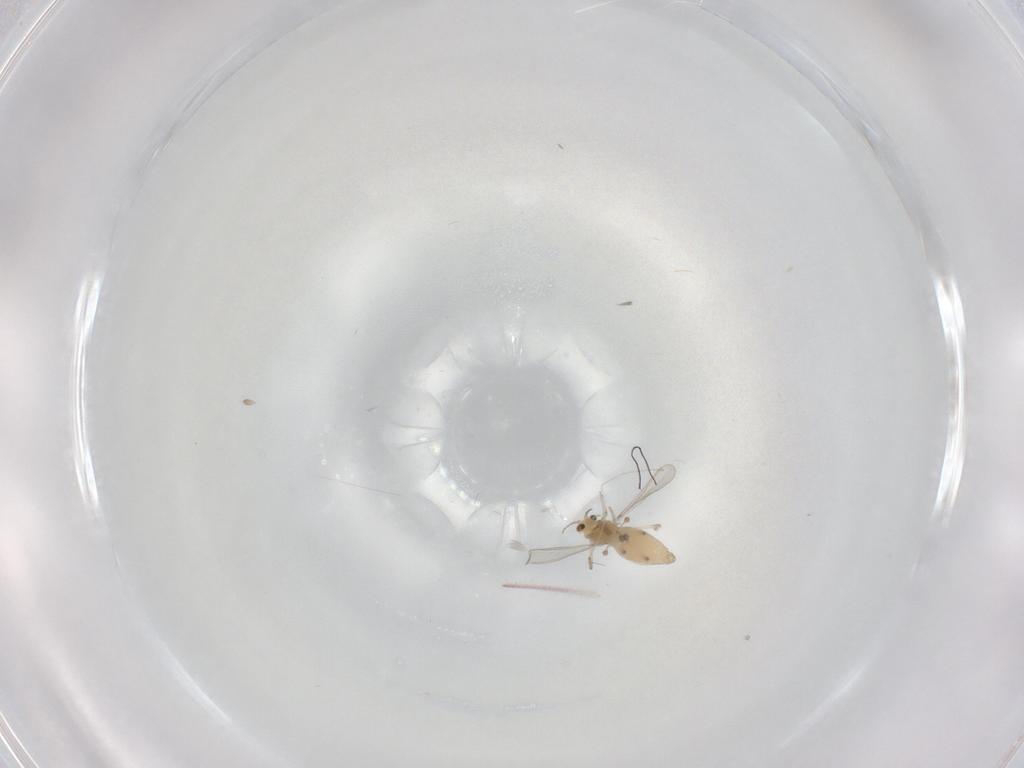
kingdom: Animalia
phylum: Arthropoda
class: Insecta
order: Diptera
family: Chironomidae
